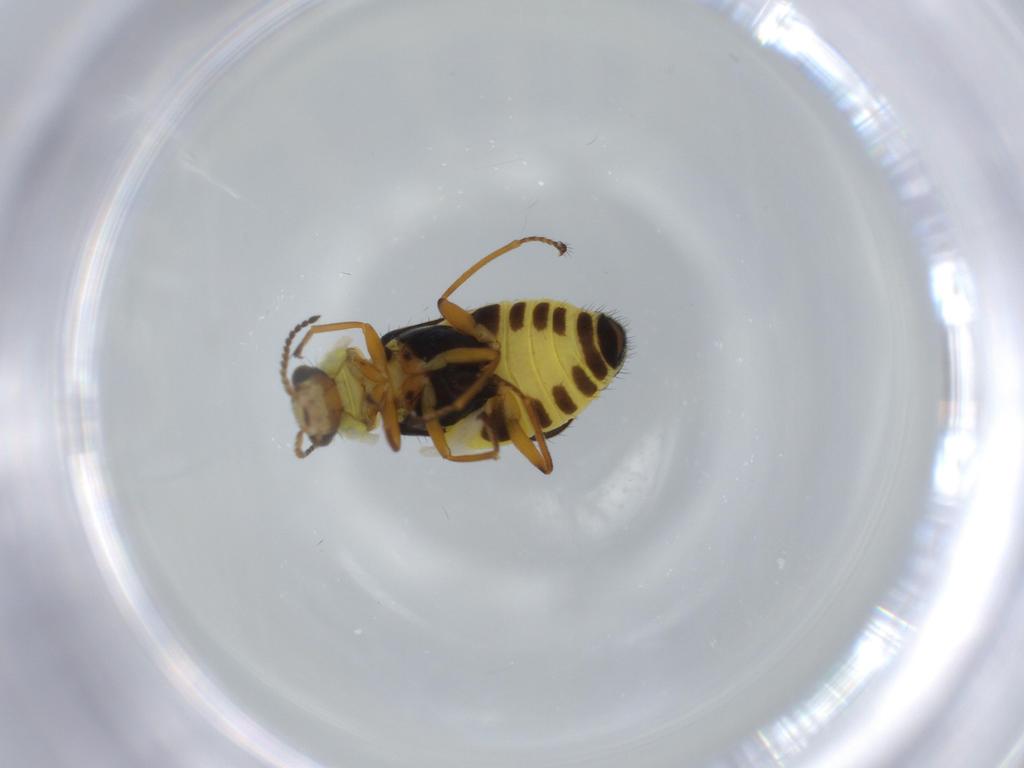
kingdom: Animalia
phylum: Arthropoda
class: Insecta
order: Coleoptera
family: Melyridae
